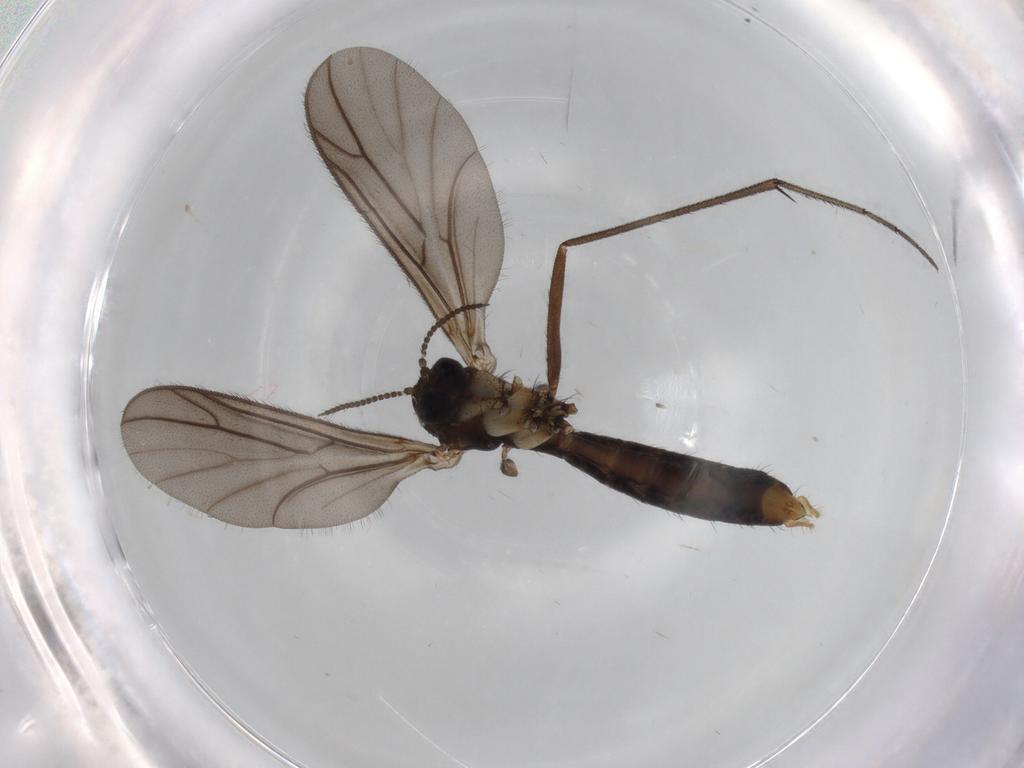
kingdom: Animalia
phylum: Arthropoda
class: Insecta
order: Diptera
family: Ditomyiidae
